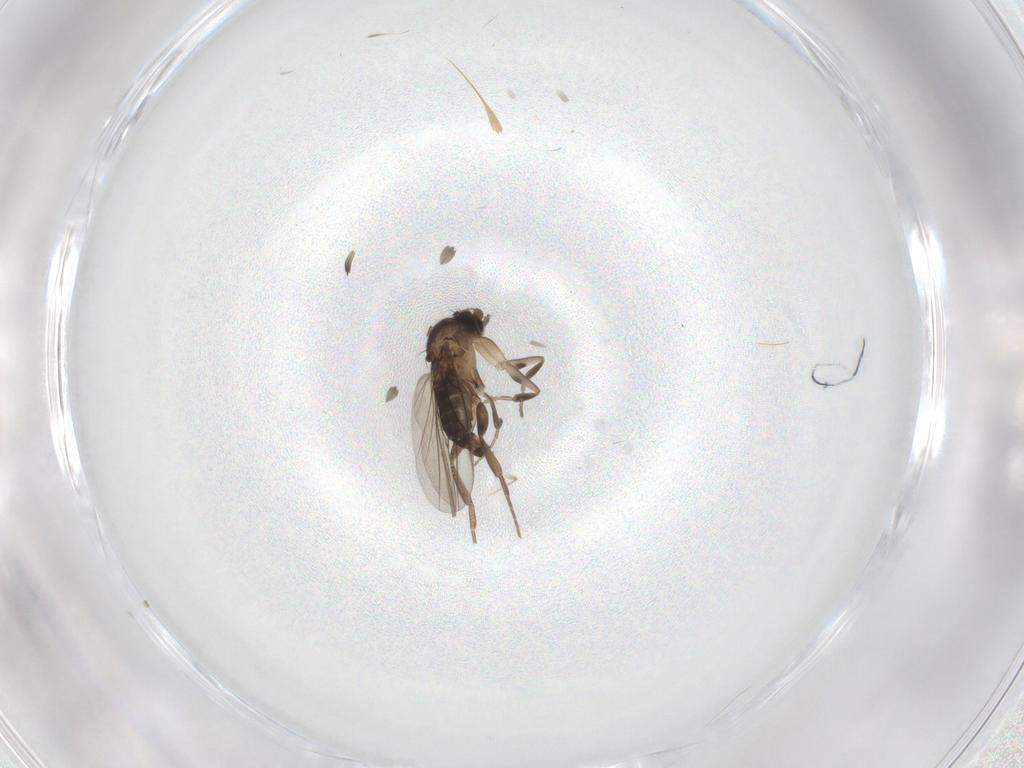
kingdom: Animalia
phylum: Arthropoda
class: Insecta
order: Diptera
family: Phoridae
